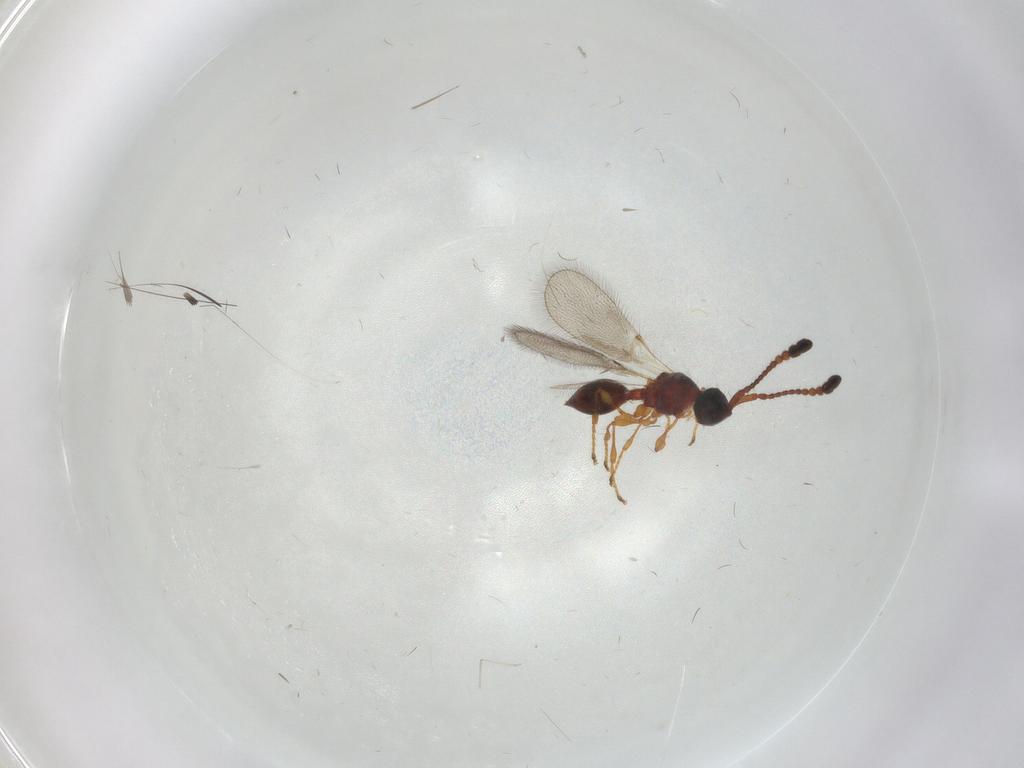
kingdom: Animalia
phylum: Arthropoda
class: Insecta
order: Hymenoptera
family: Diapriidae
